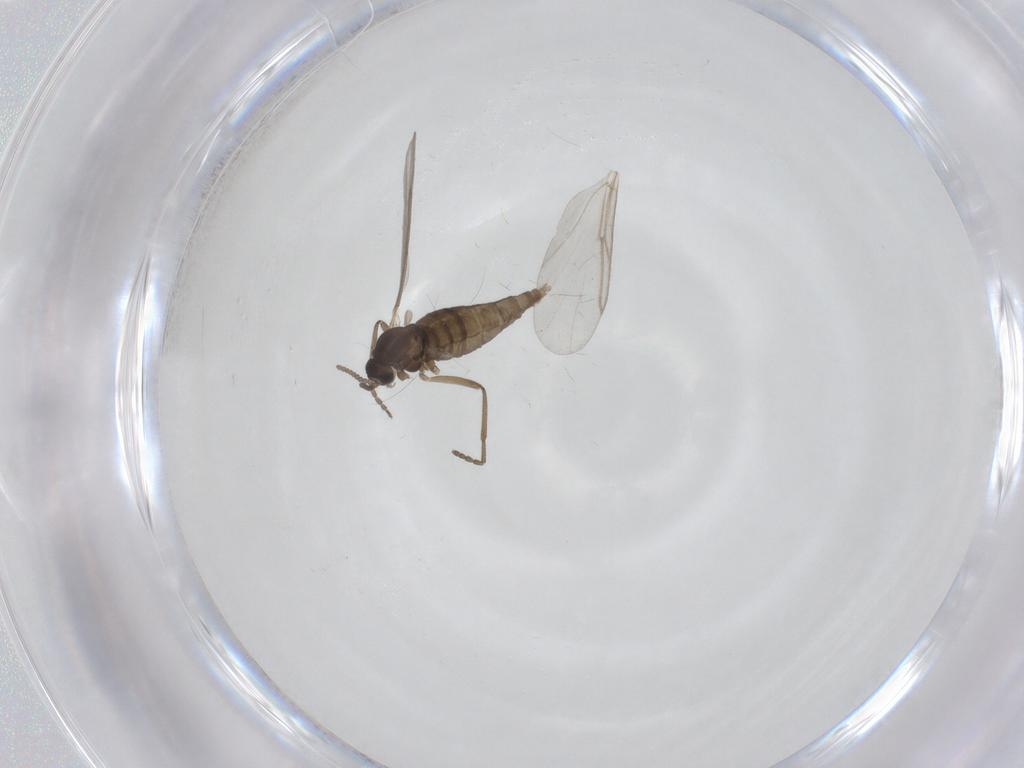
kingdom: Animalia
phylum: Arthropoda
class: Insecta
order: Diptera
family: Cecidomyiidae
